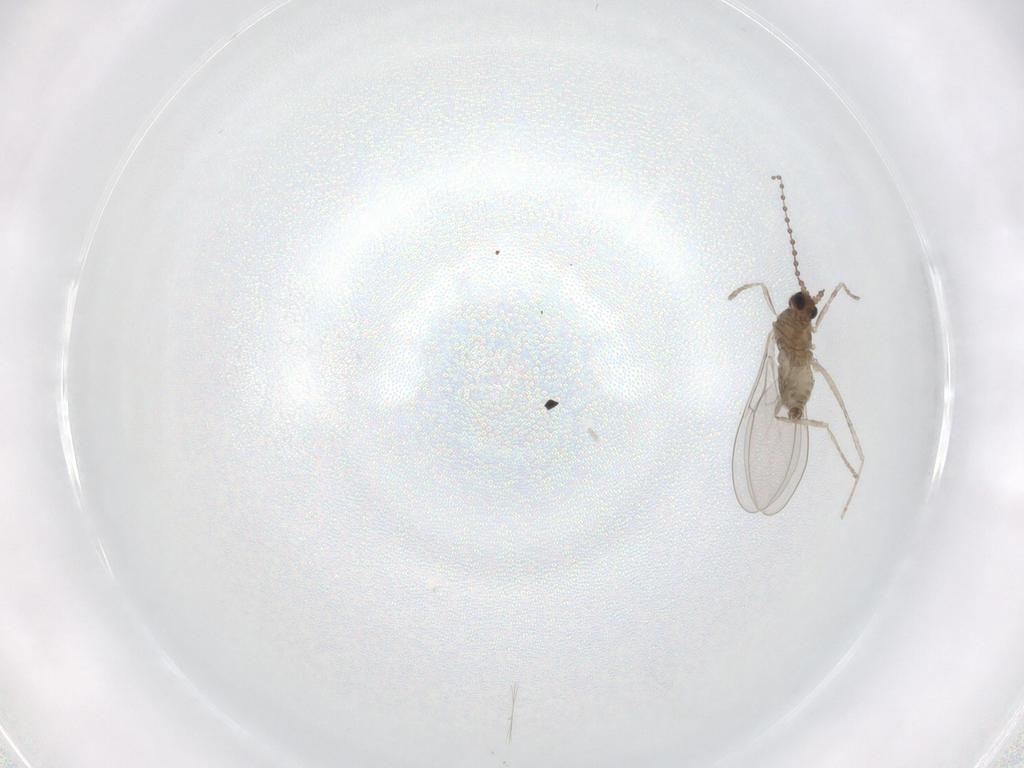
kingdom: Animalia
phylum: Arthropoda
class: Insecta
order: Diptera
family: Cecidomyiidae
